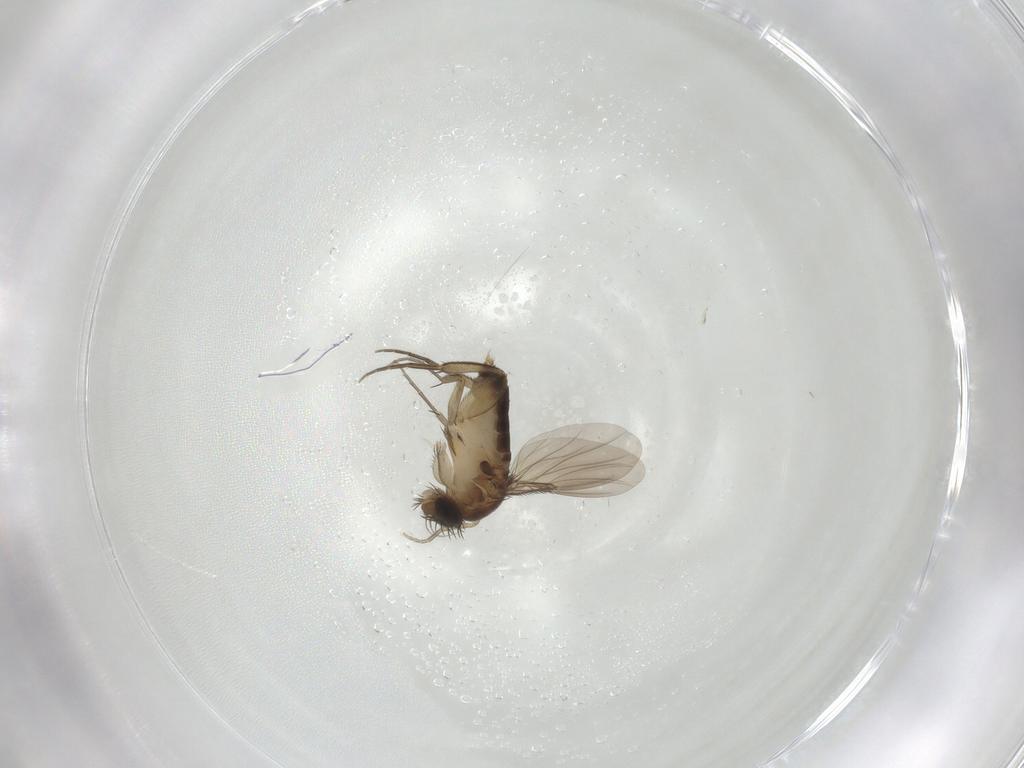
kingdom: Animalia
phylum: Arthropoda
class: Insecta
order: Diptera
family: Phoridae
